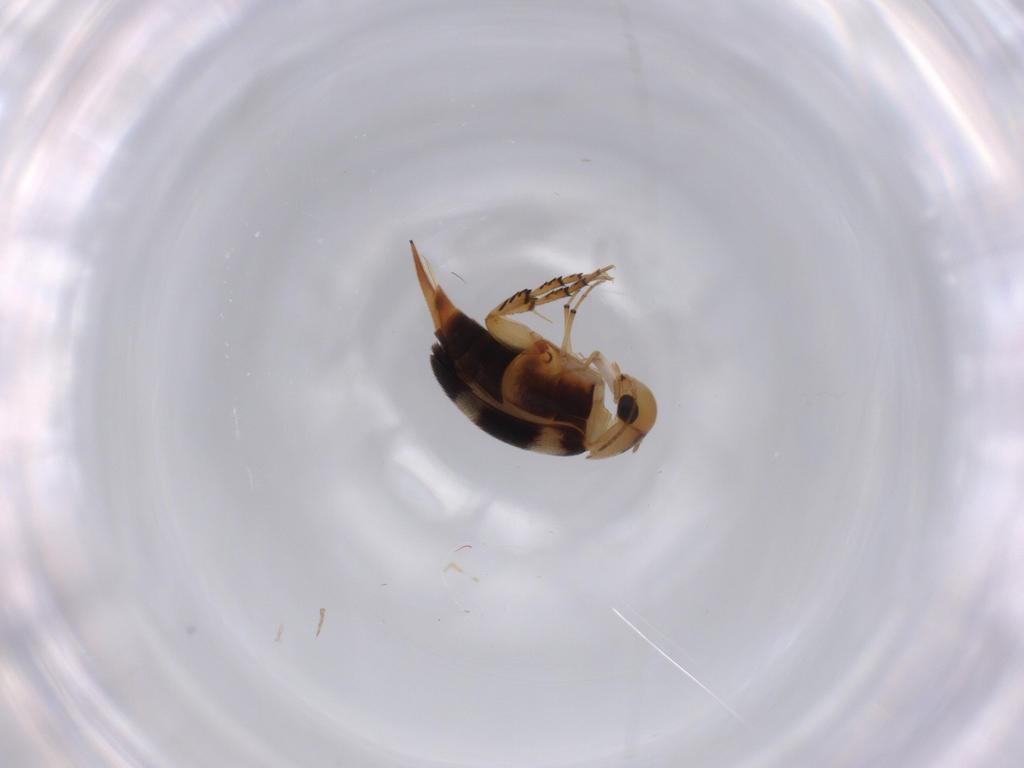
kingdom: Animalia
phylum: Arthropoda
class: Insecta
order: Coleoptera
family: Mordellidae
